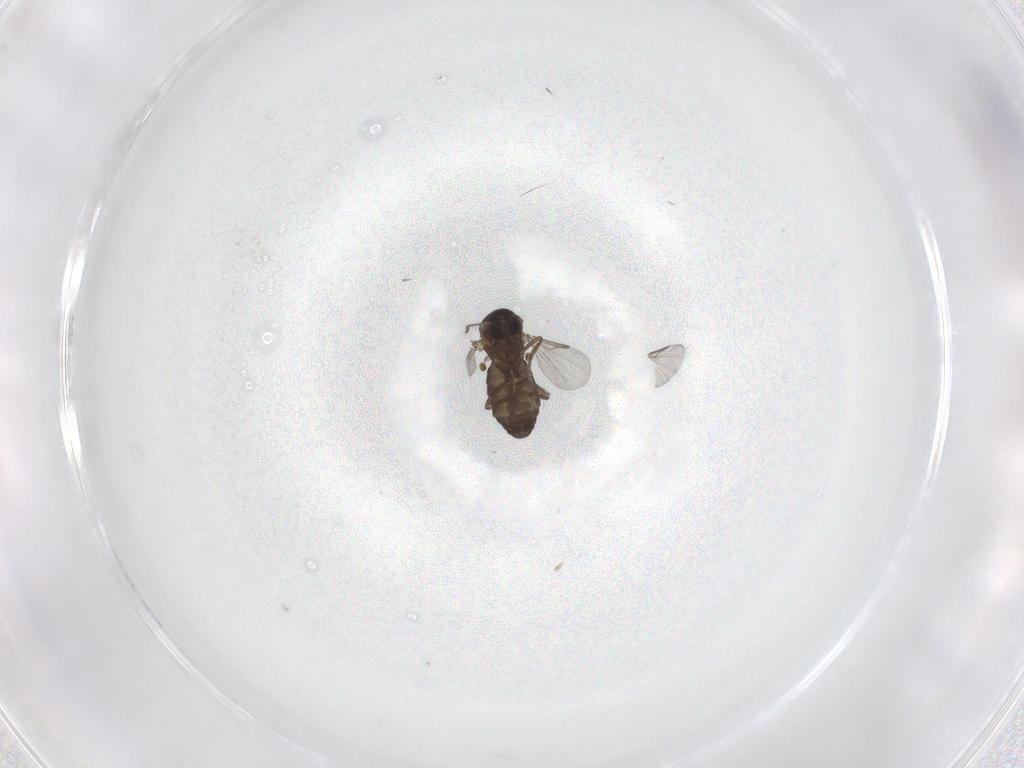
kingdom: Animalia
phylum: Arthropoda
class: Insecta
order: Diptera
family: Ceratopogonidae
